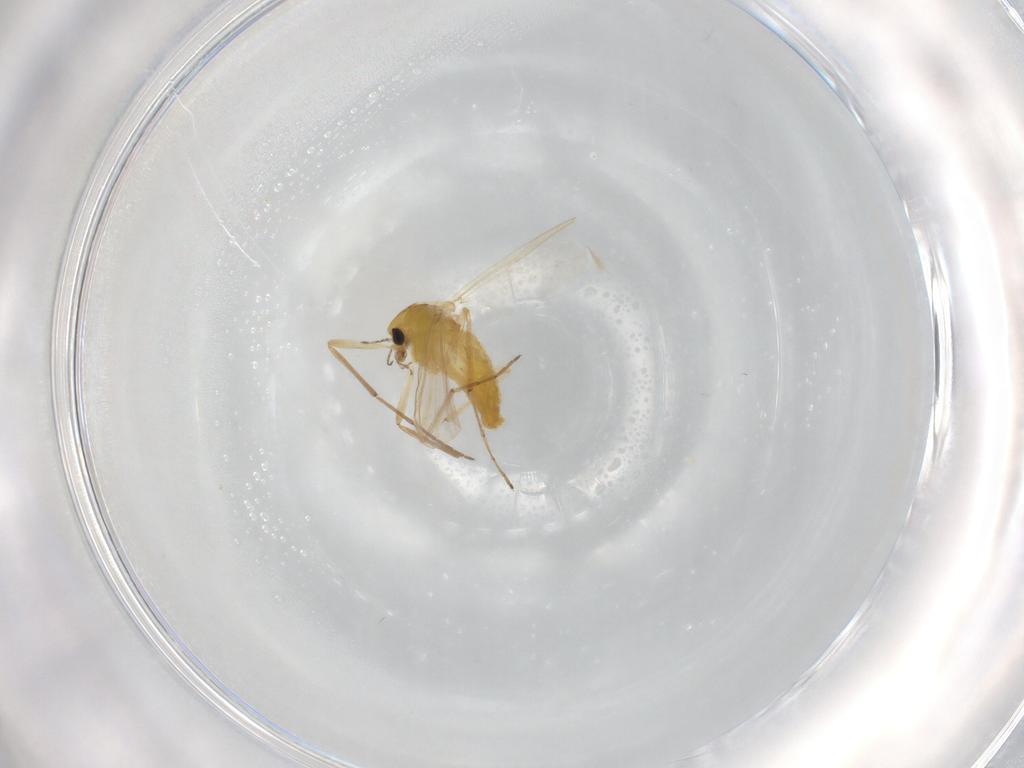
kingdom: Animalia
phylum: Arthropoda
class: Insecta
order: Diptera
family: Chironomidae
